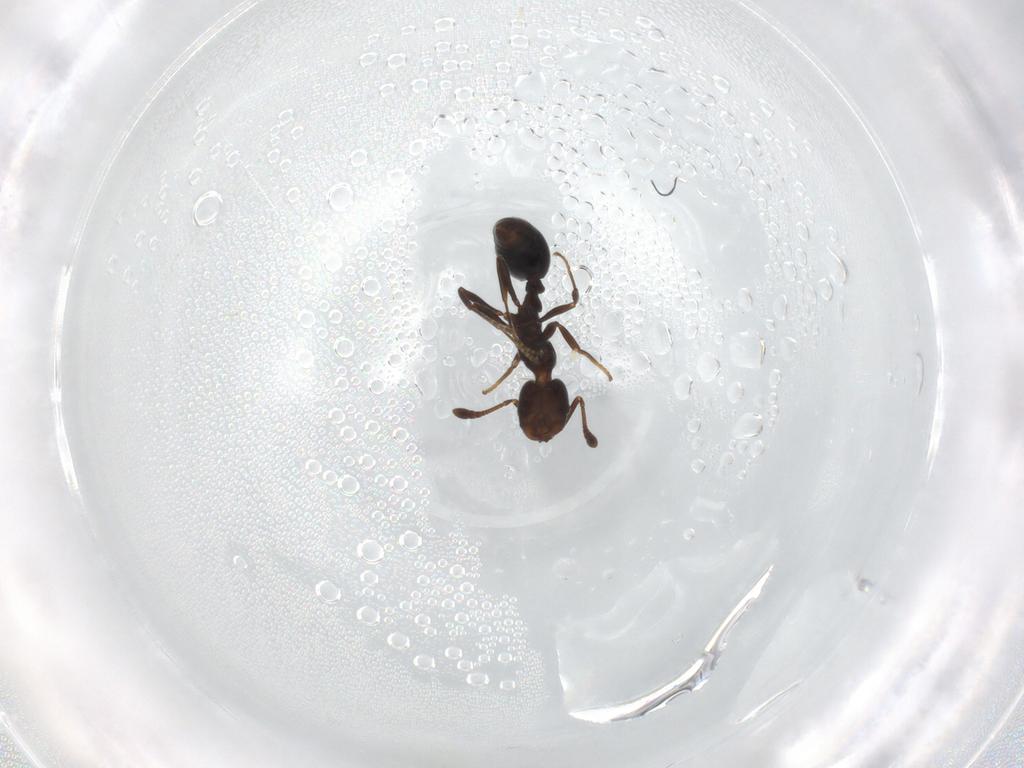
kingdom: Animalia
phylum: Arthropoda
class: Insecta
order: Hymenoptera
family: Formicidae
